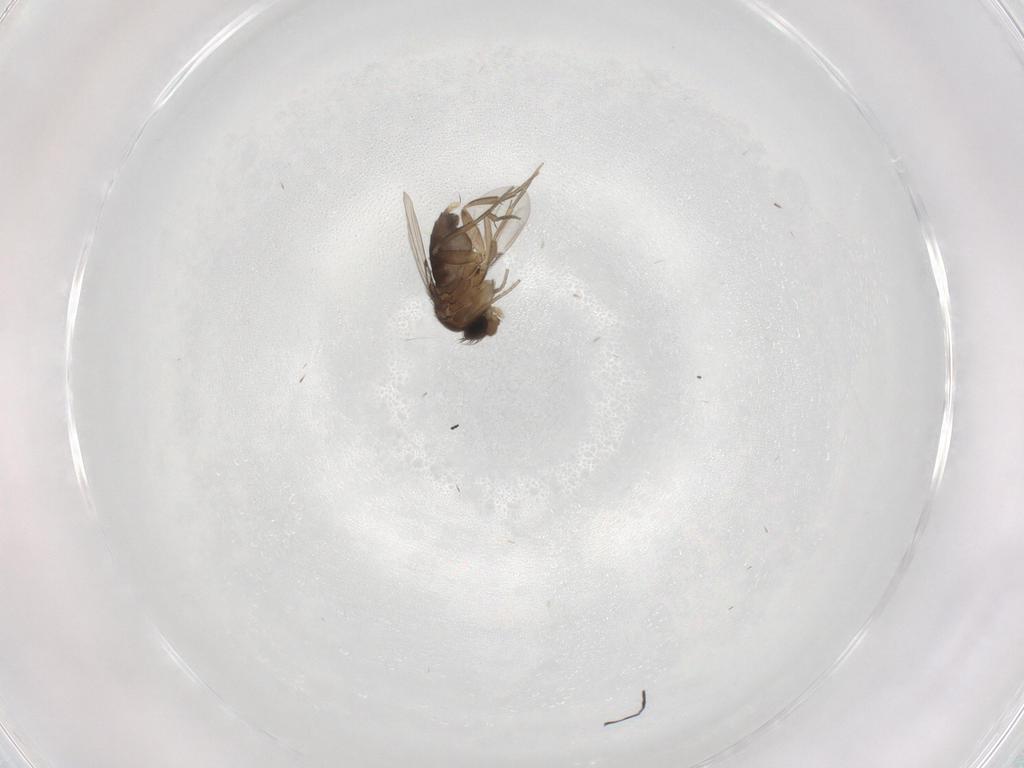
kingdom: Animalia
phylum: Arthropoda
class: Insecta
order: Diptera
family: Phoridae
